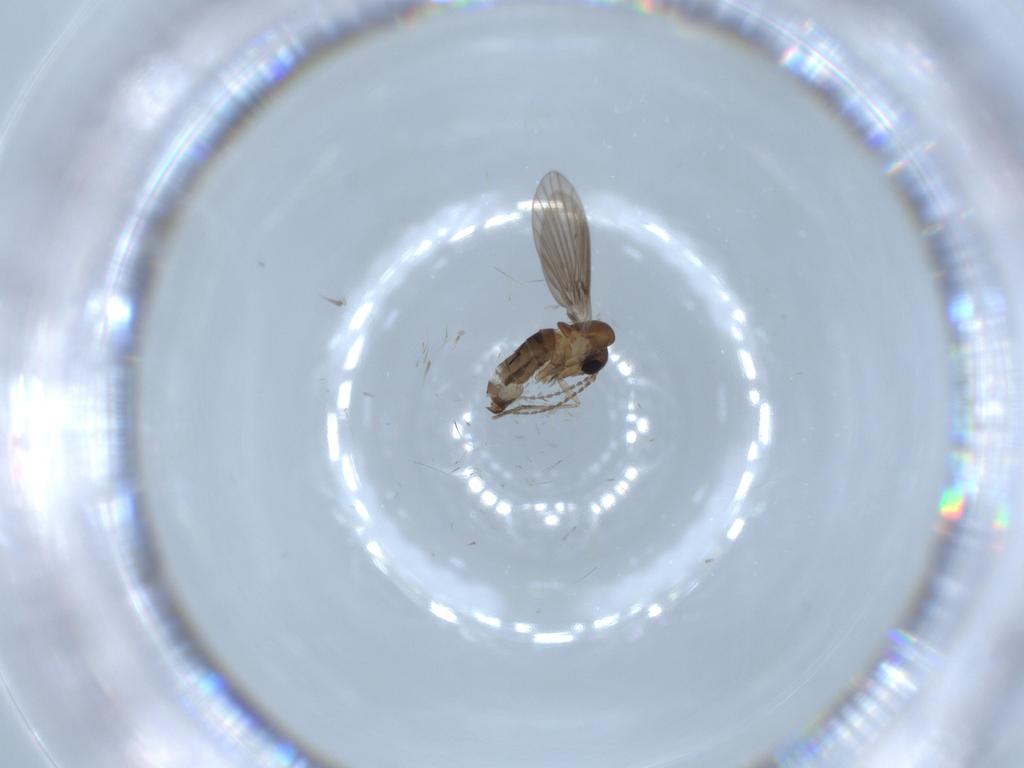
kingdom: Animalia
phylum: Arthropoda
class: Insecta
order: Diptera
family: Psychodidae
